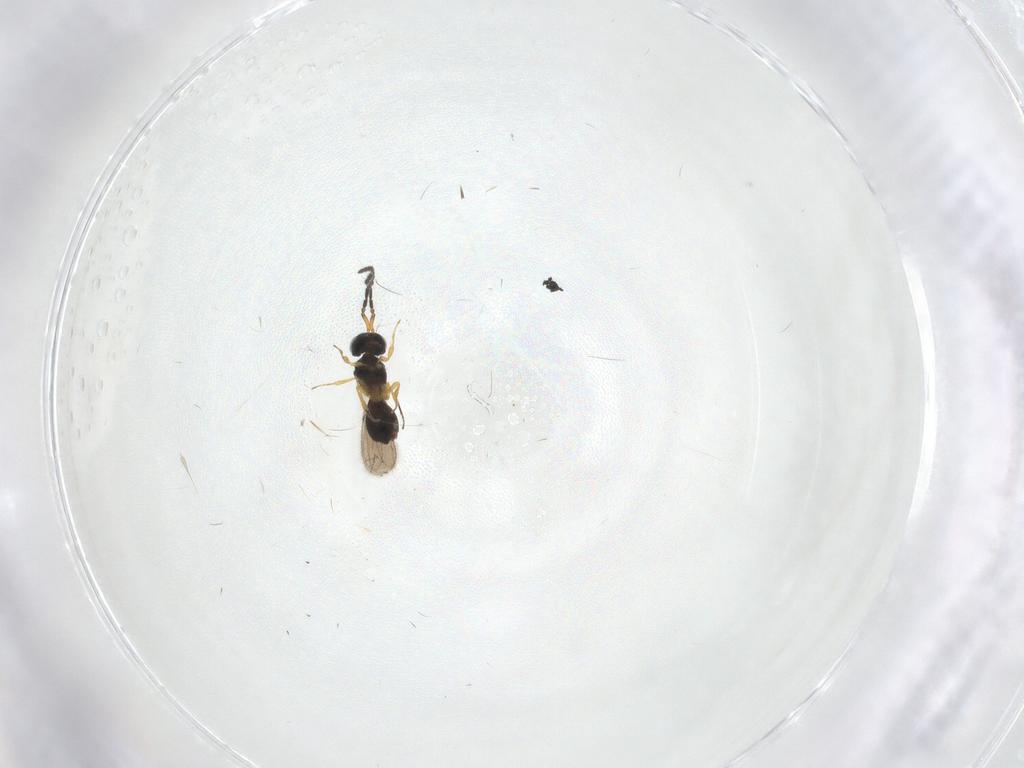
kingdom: Animalia
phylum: Arthropoda
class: Insecta
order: Hymenoptera
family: Scelionidae
